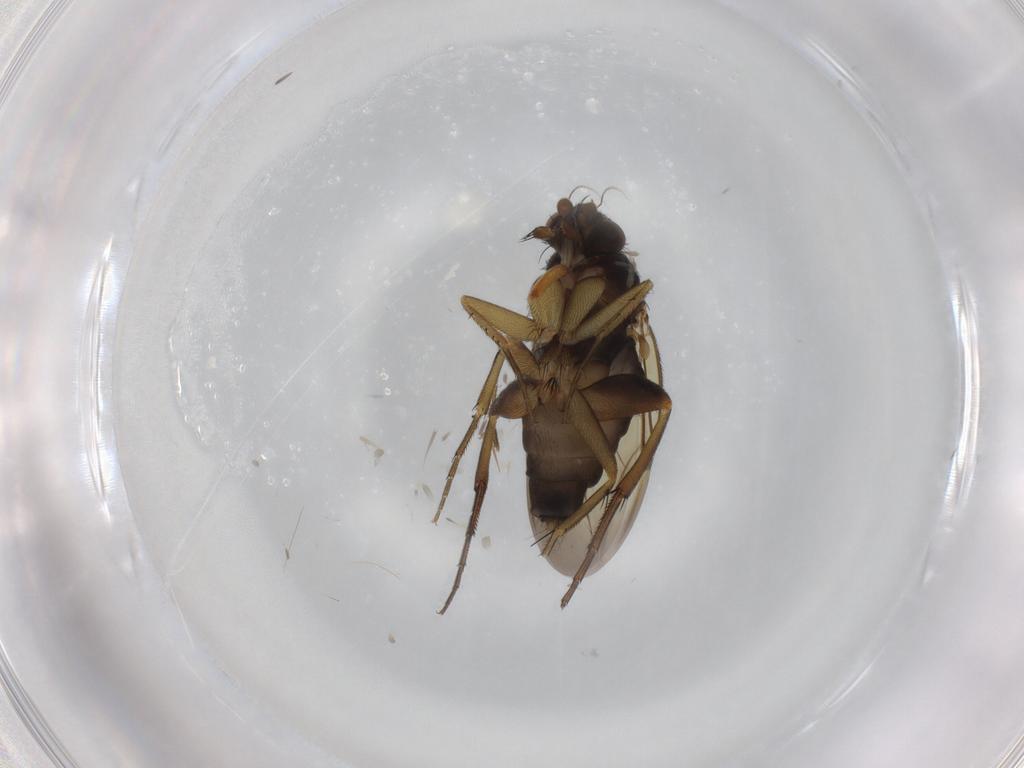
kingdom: Animalia
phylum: Arthropoda
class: Insecta
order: Diptera
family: Phoridae
